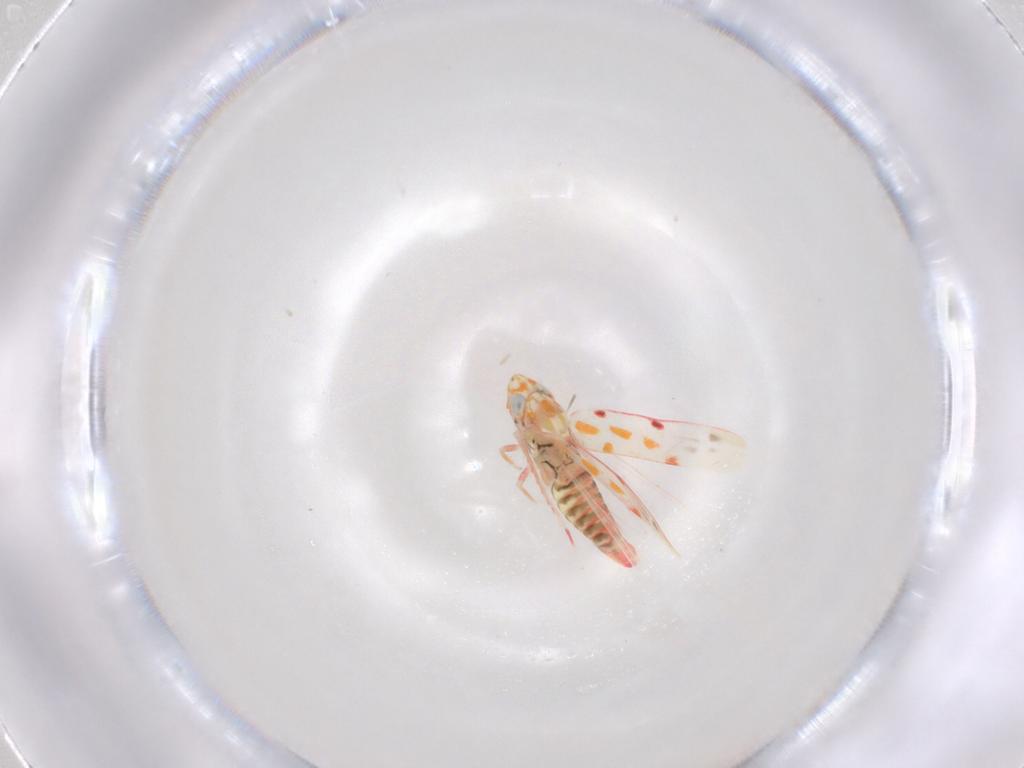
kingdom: Animalia
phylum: Arthropoda
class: Insecta
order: Hemiptera
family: Cicadellidae
